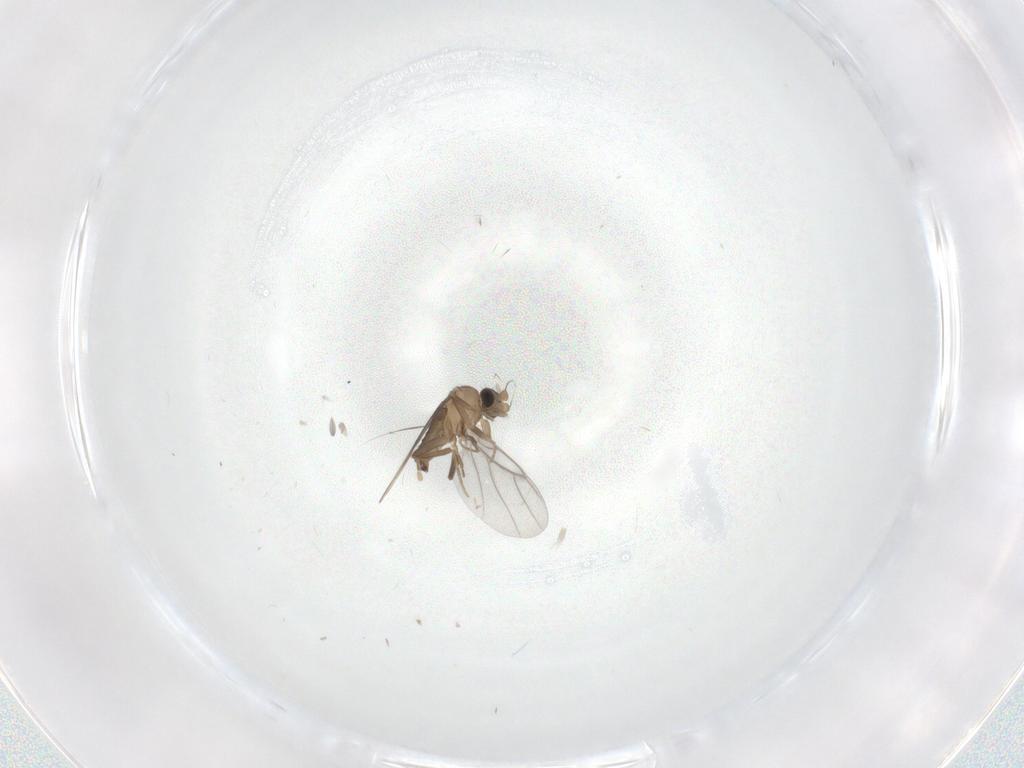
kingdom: Animalia
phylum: Arthropoda
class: Insecta
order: Diptera
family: Cecidomyiidae
